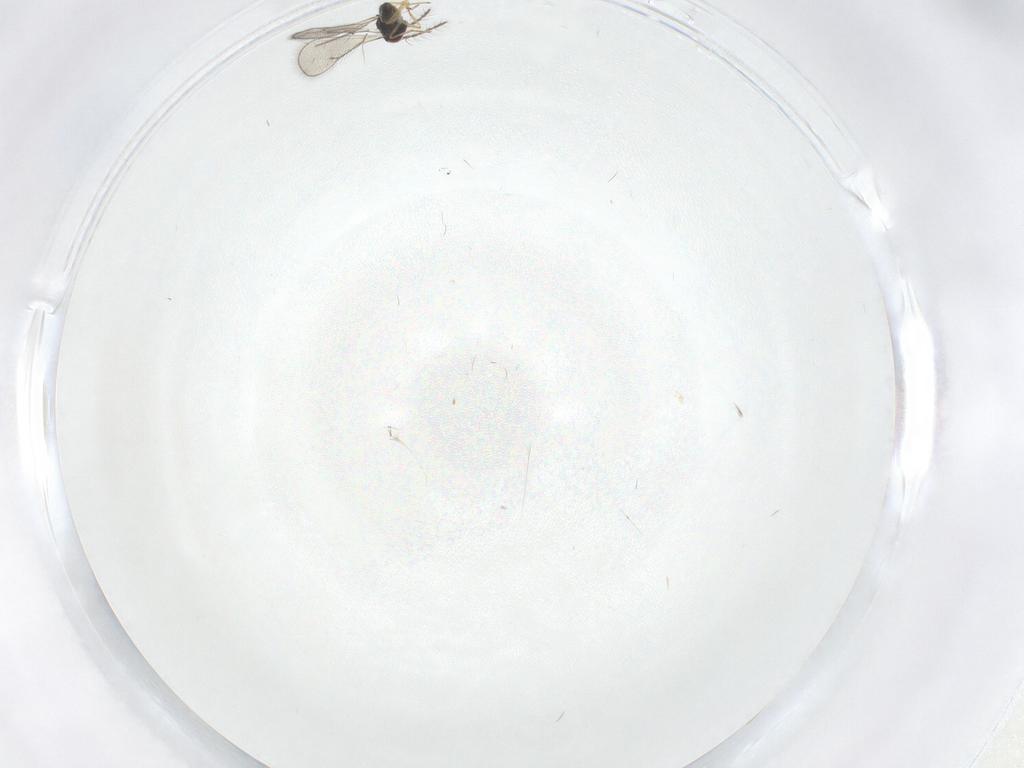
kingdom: Animalia
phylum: Arthropoda
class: Insecta
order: Hymenoptera
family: Eulophidae
